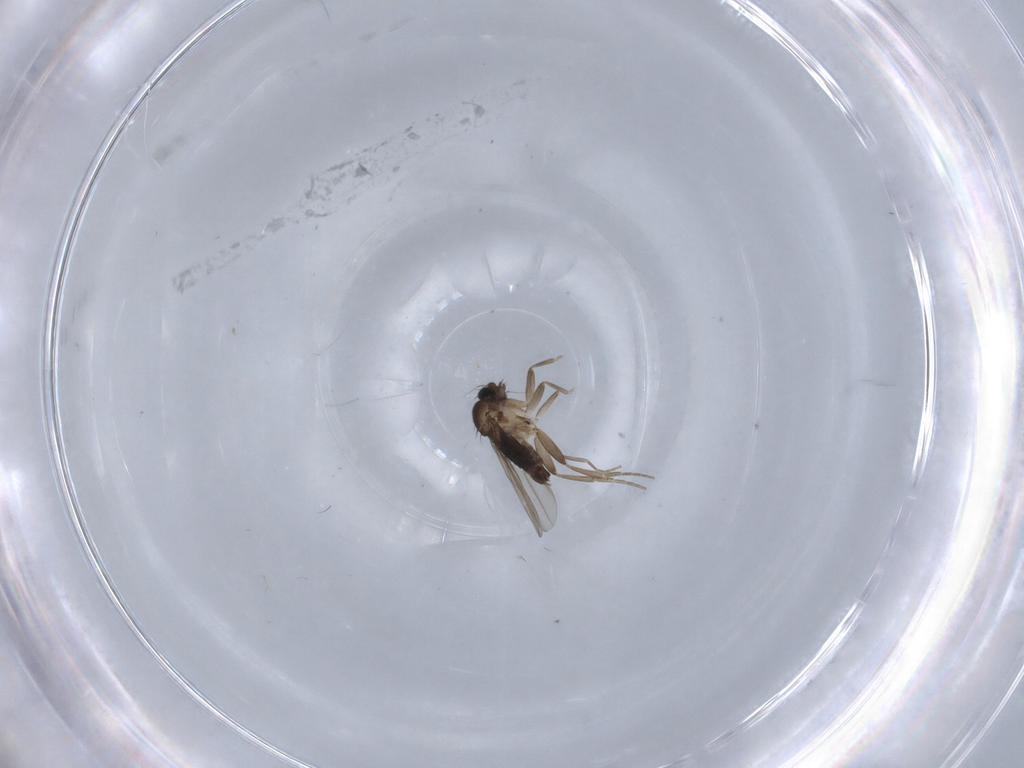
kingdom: Animalia
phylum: Arthropoda
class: Insecta
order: Diptera
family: Phoridae
